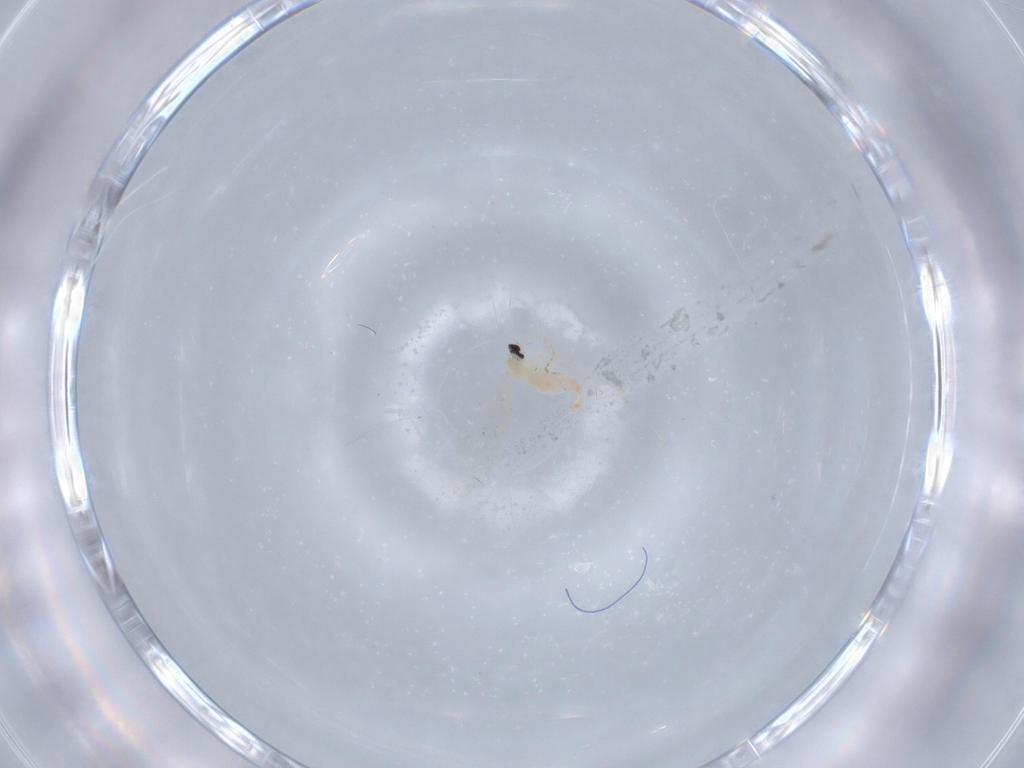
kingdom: Animalia
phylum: Arthropoda
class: Insecta
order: Diptera
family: Cecidomyiidae
